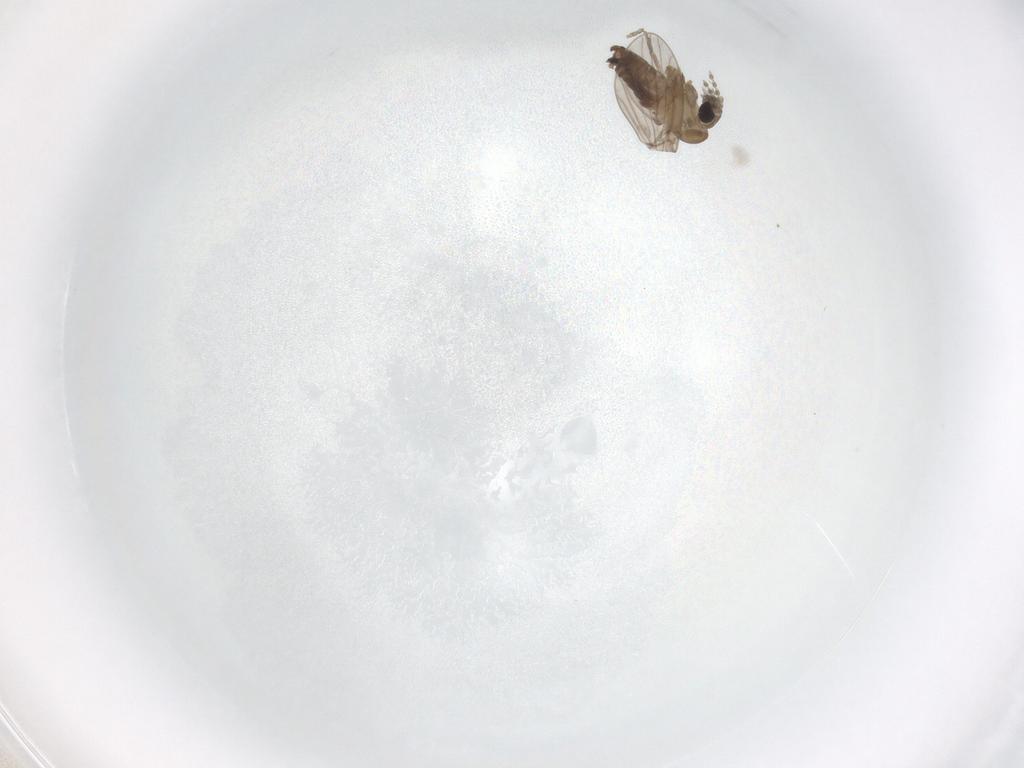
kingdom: Animalia
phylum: Arthropoda
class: Insecta
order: Diptera
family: Psychodidae
